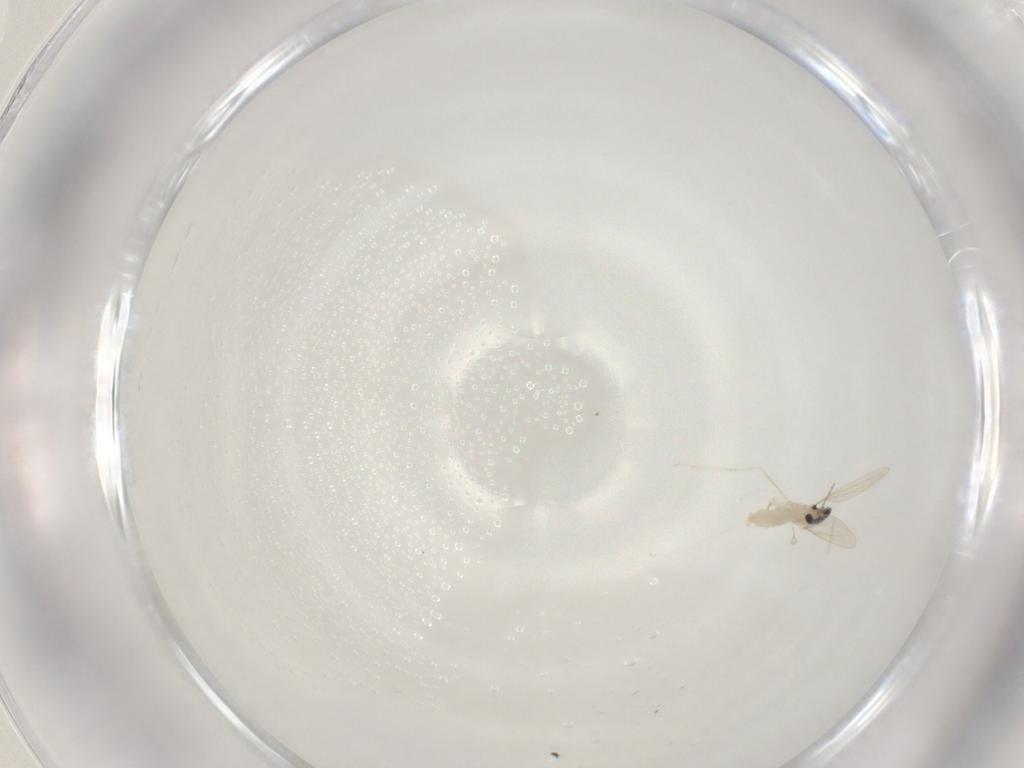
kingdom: Animalia
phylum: Arthropoda
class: Insecta
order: Diptera
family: Cecidomyiidae
